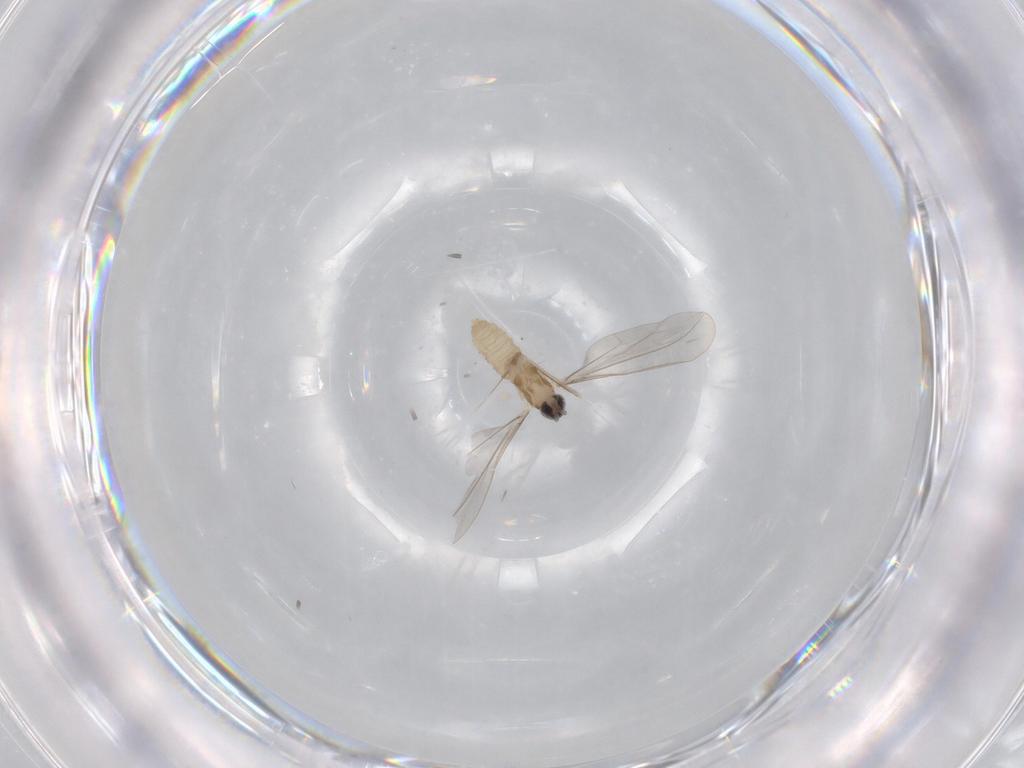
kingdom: Animalia
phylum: Arthropoda
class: Insecta
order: Diptera
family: Cecidomyiidae
